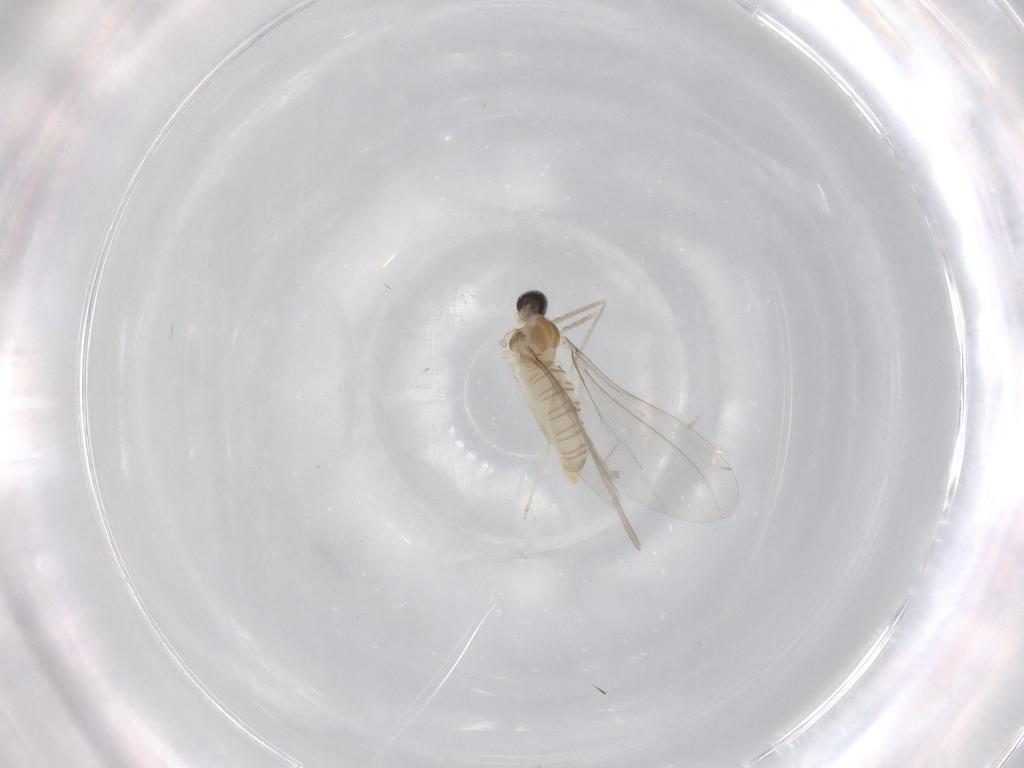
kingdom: Animalia
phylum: Arthropoda
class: Insecta
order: Diptera
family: Cecidomyiidae
